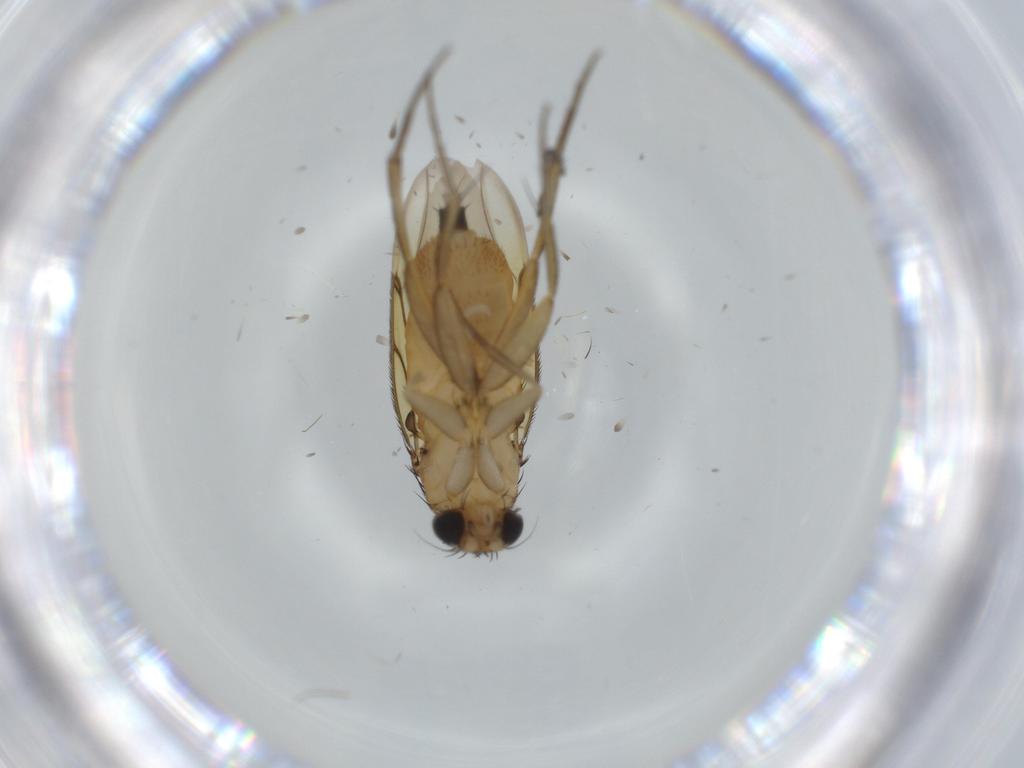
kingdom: Animalia
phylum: Arthropoda
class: Insecta
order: Diptera
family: Sciaridae
